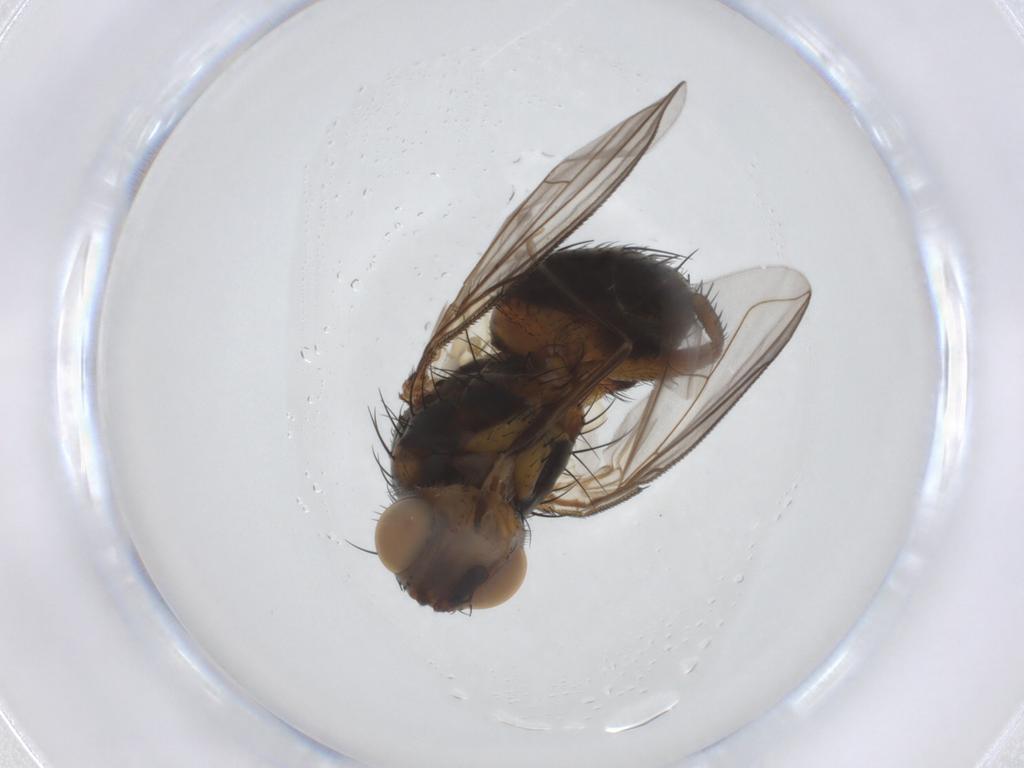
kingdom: Animalia
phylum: Arthropoda
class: Insecta
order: Diptera
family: Tachinidae
